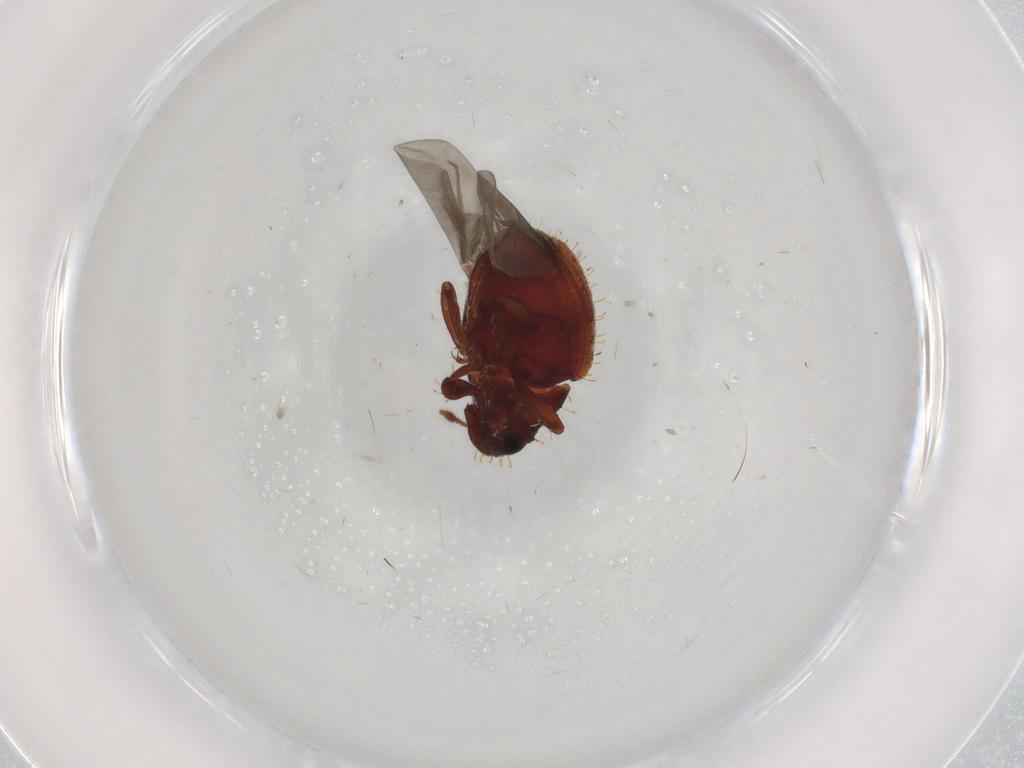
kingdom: Animalia
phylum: Arthropoda
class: Insecta
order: Coleoptera
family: Curculionidae
